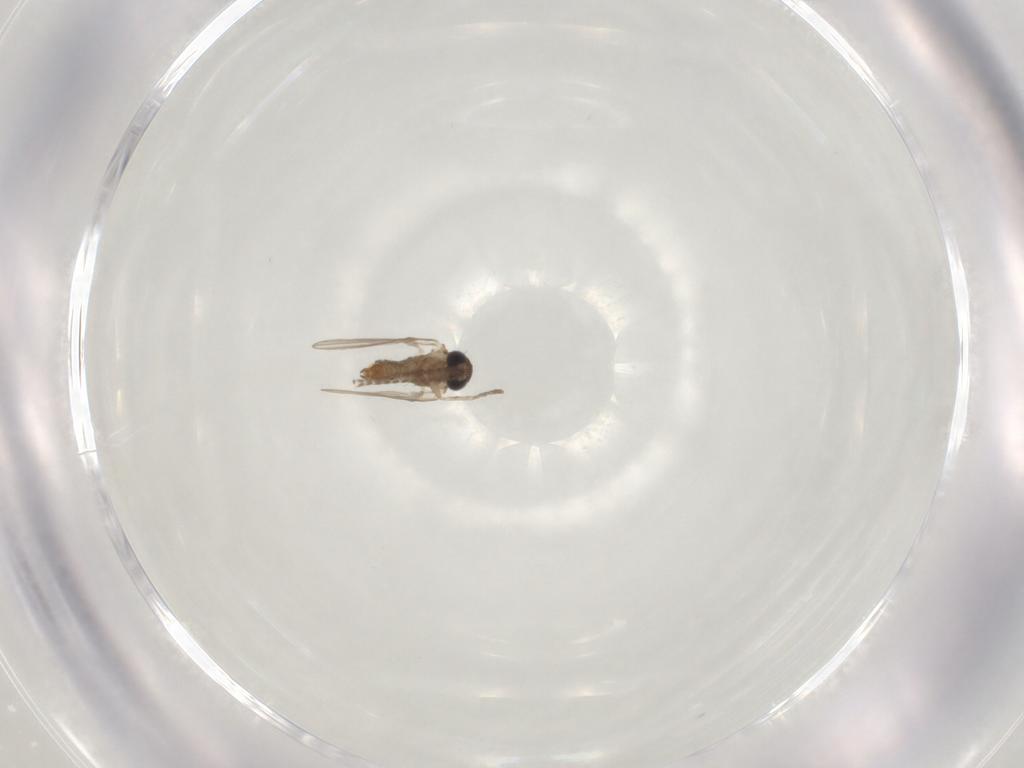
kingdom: Animalia
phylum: Arthropoda
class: Insecta
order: Diptera
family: Psychodidae
